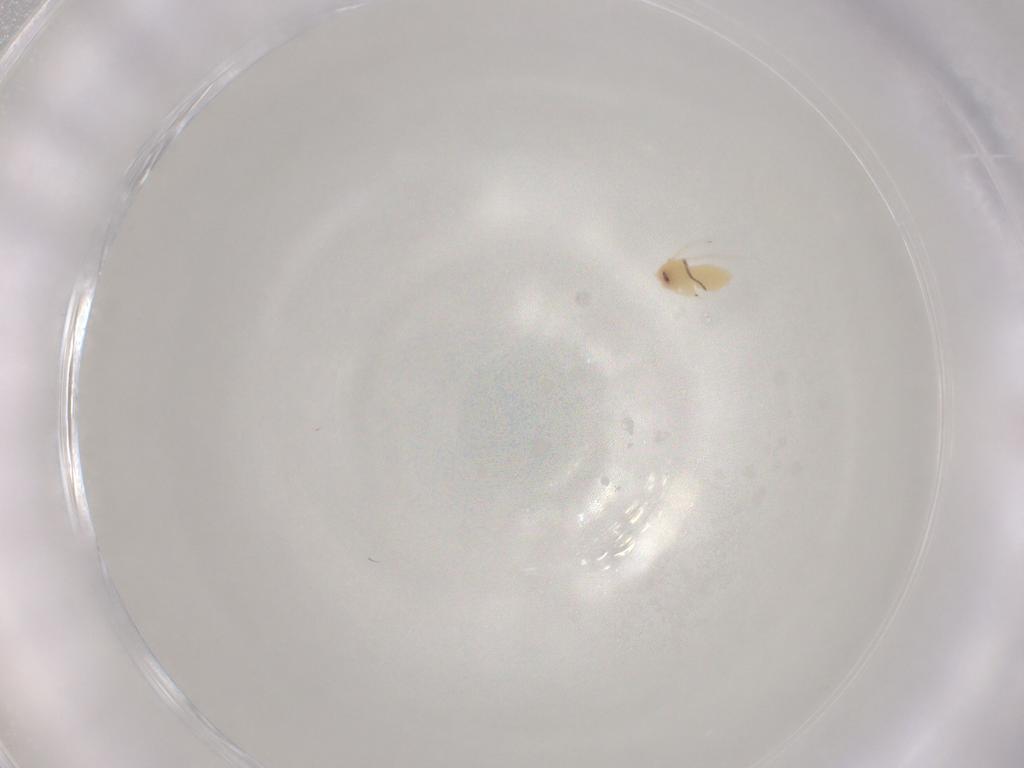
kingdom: Animalia
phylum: Arthropoda
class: Insecta
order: Diptera
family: Ceratopogonidae
